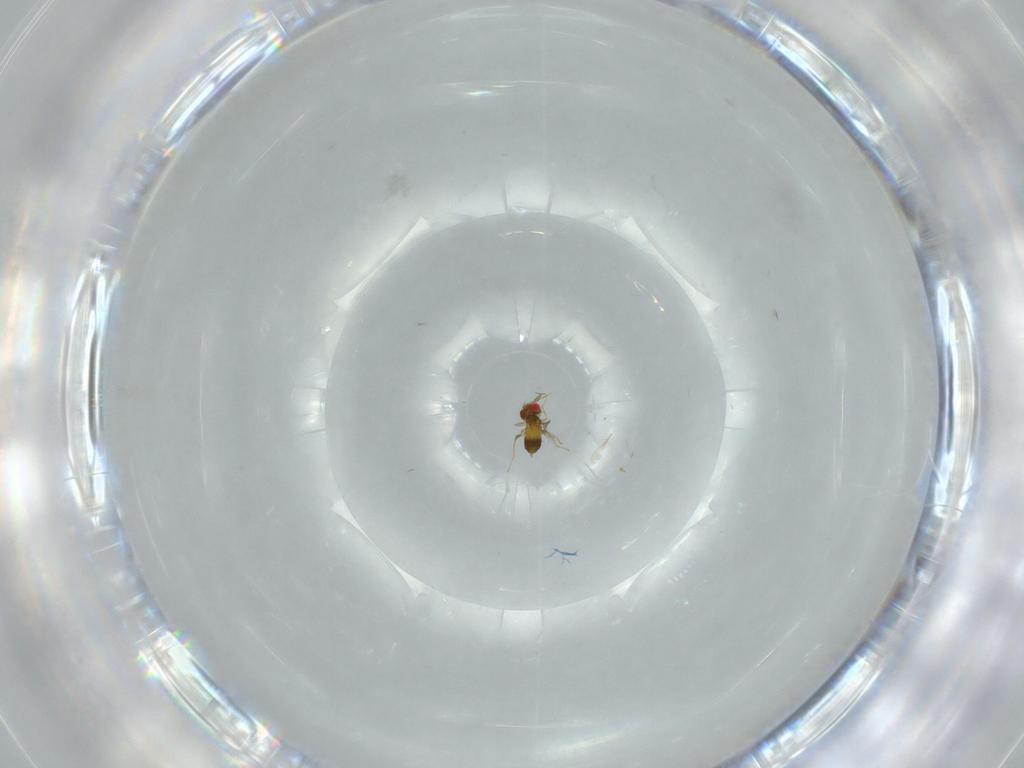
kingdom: Animalia
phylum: Arthropoda
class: Insecta
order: Hymenoptera
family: Trichogrammatidae
